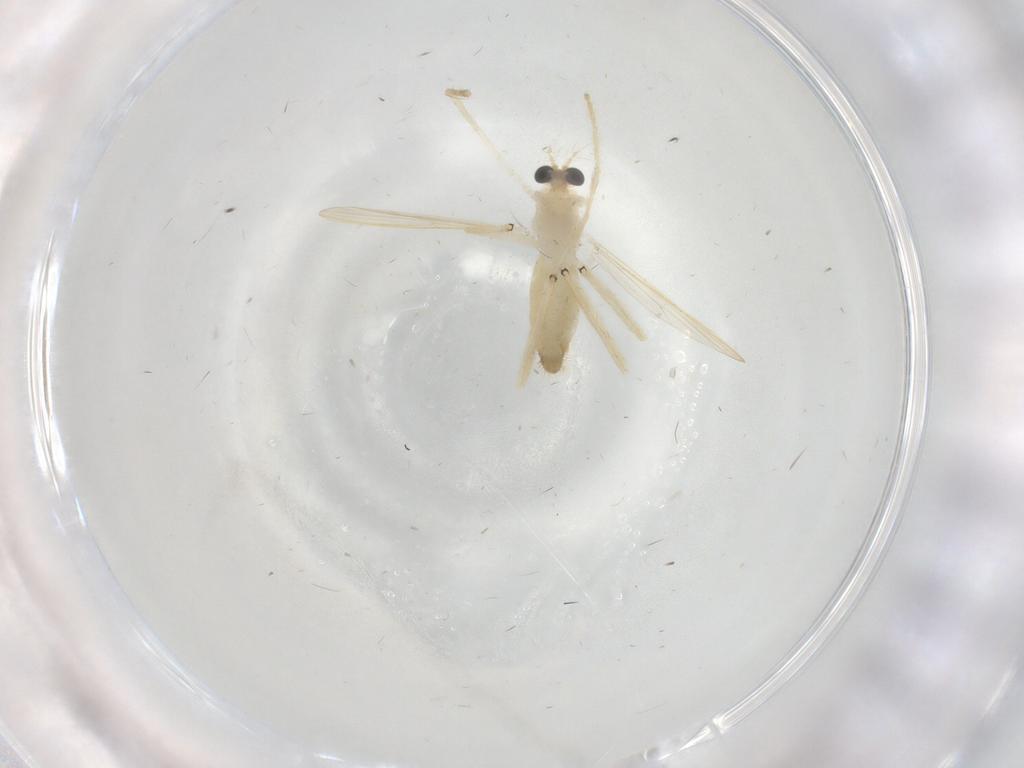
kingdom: Animalia
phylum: Arthropoda
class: Insecta
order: Diptera
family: Chironomidae
